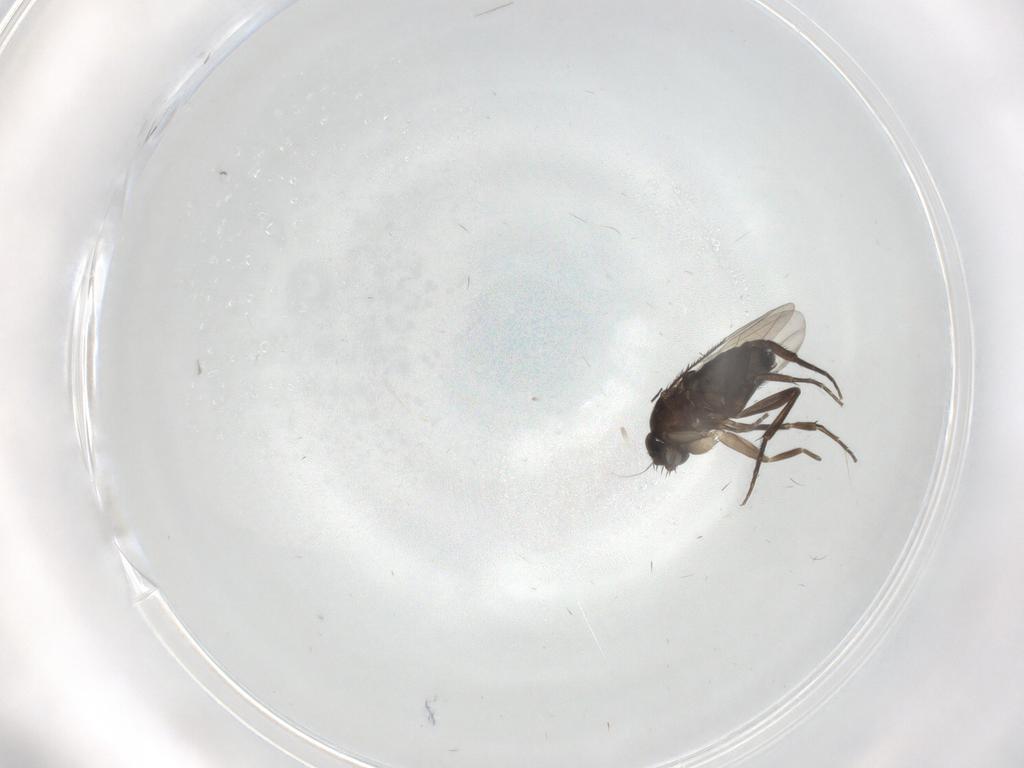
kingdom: Animalia
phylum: Arthropoda
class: Insecta
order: Diptera
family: Phoridae
